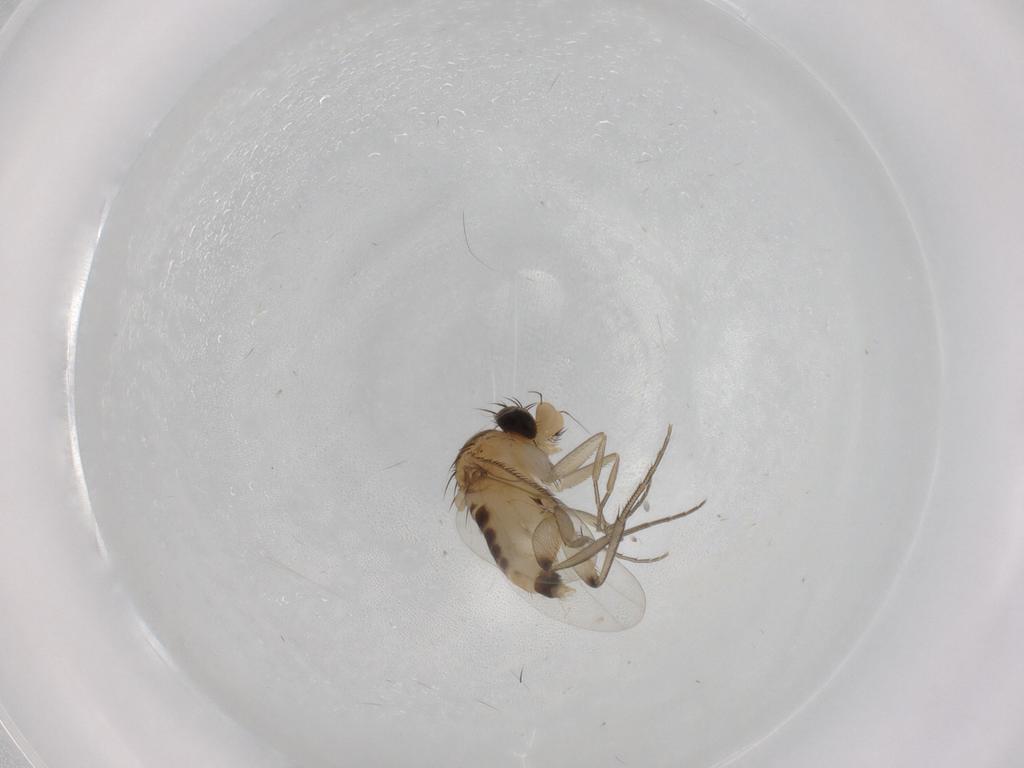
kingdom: Animalia
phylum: Arthropoda
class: Insecta
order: Diptera
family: Phoridae
